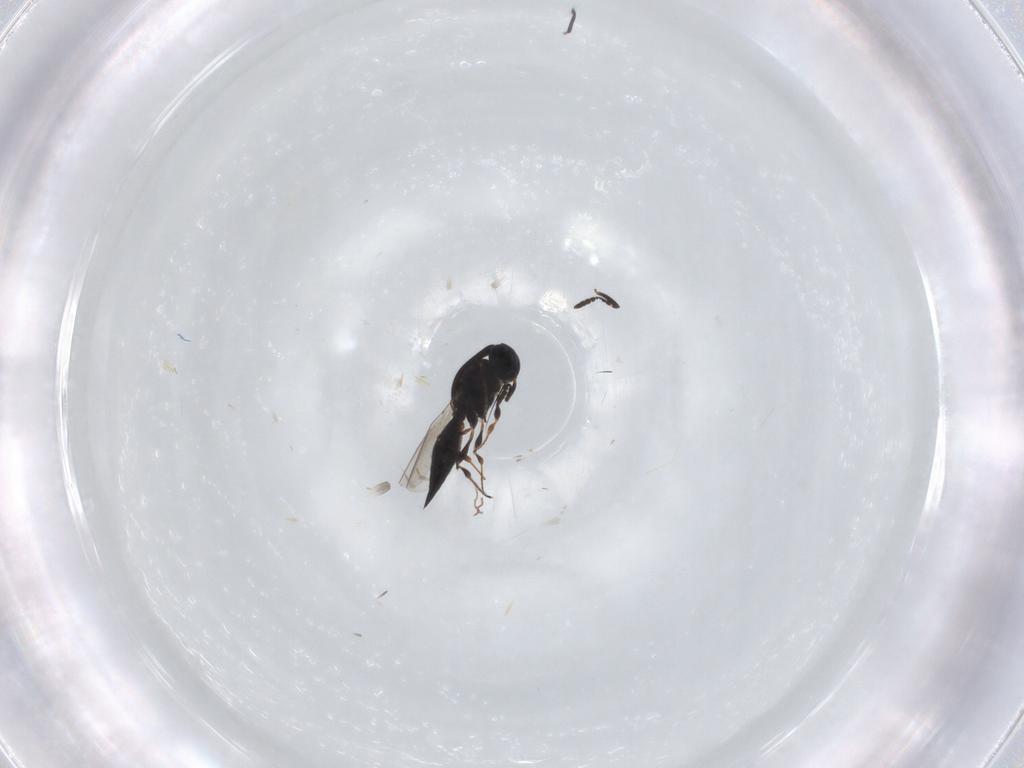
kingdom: Animalia
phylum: Arthropoda
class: Insecta
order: Hymenoptera
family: Platygastridae
